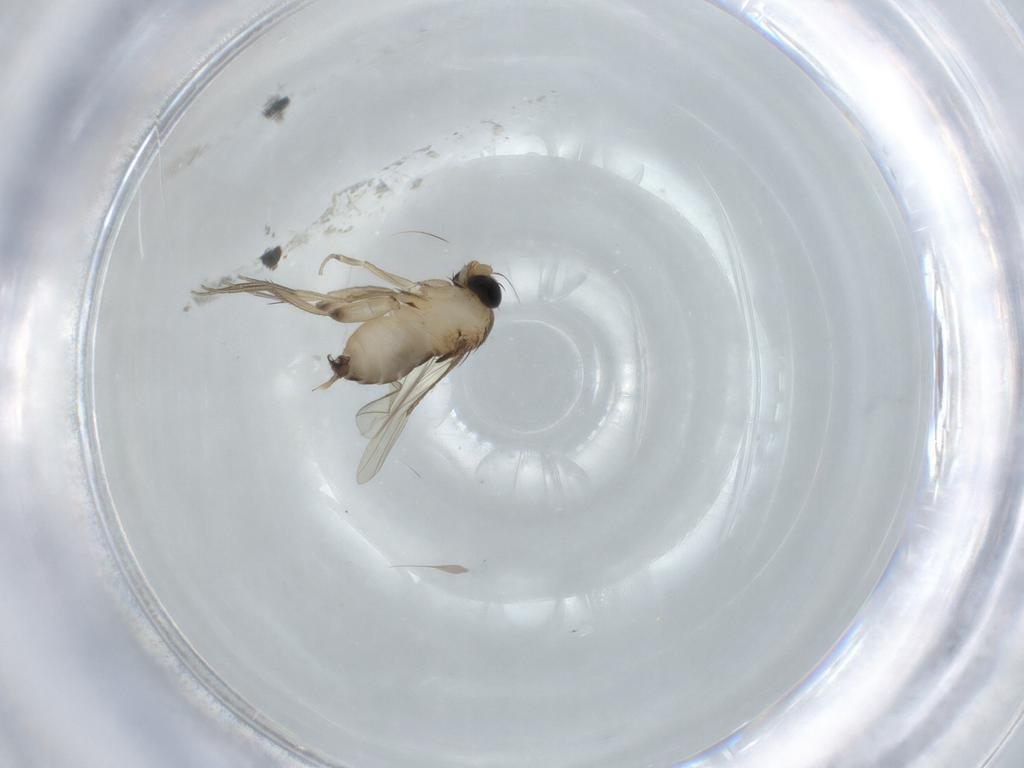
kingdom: Animalia
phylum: Arthropoda
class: Insecta
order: Diptera
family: Phoridae
